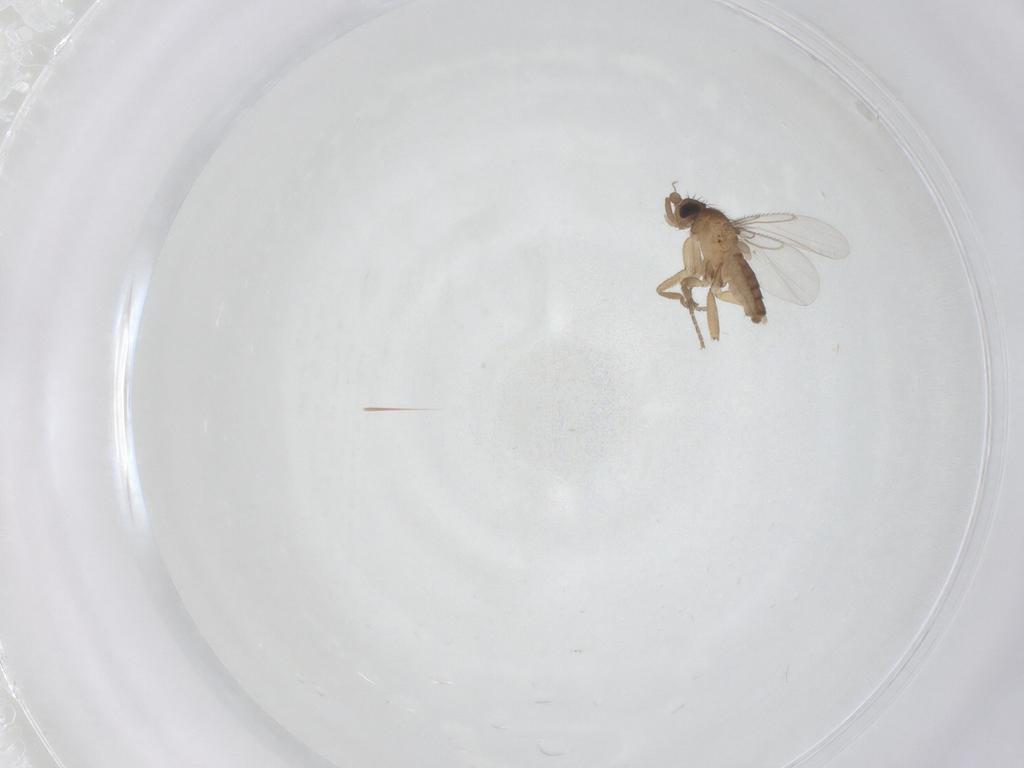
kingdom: Animalia
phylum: Arthropoda
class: Insecta
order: Diptera
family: Muscidae
